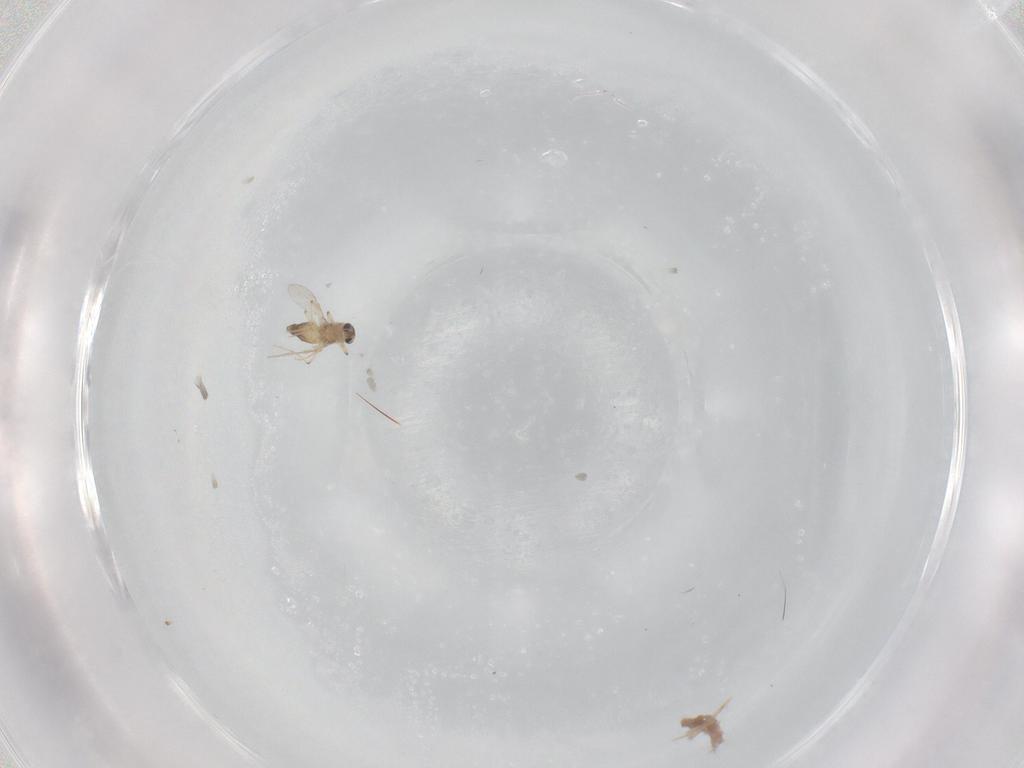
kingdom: Animalia
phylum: Arthropoda
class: Insecta
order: Diptera
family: Chironomidae
